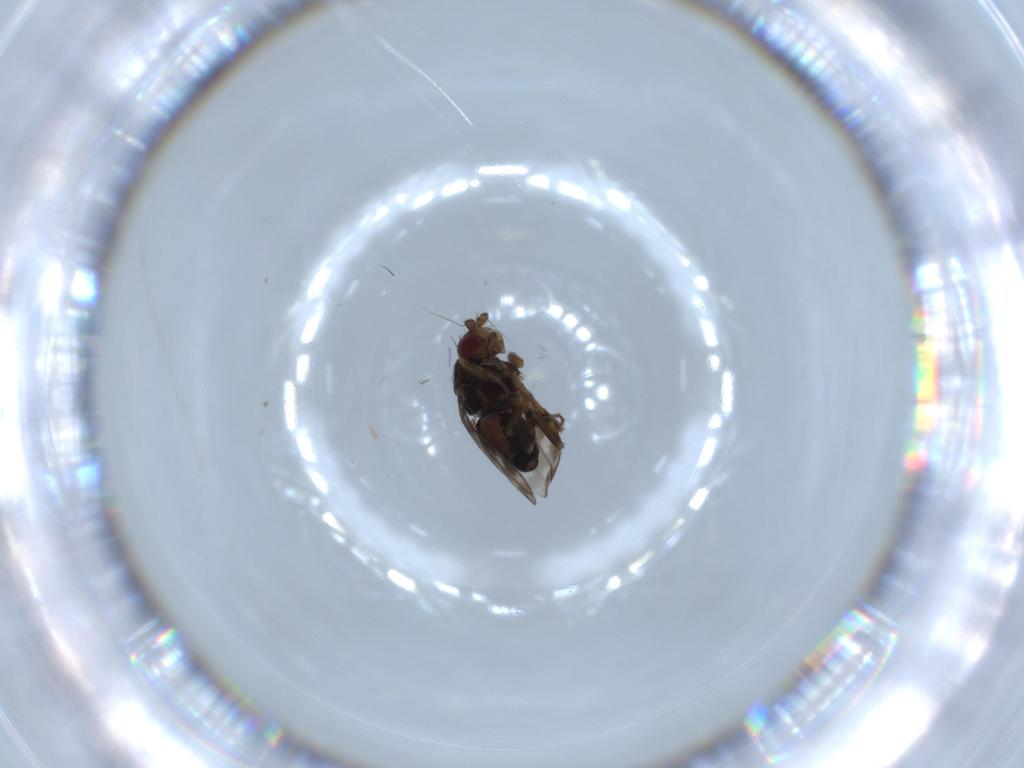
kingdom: Animalia
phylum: Arthropoda
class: Insecta
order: Diptera
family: Sphaeroceridae
